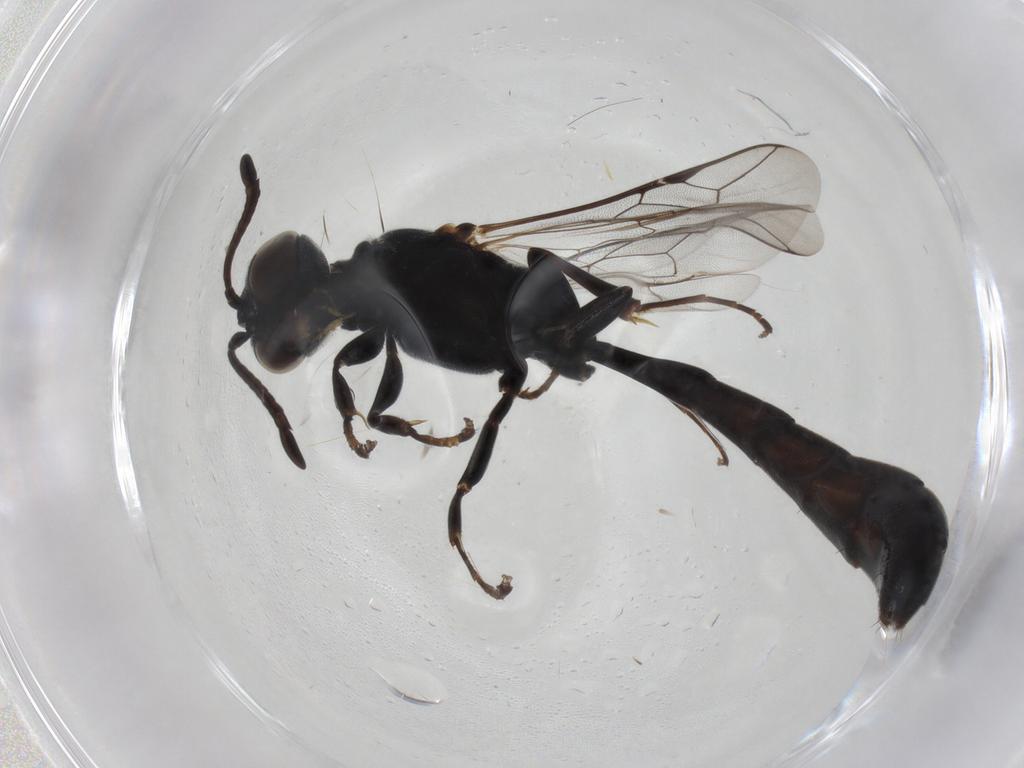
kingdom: Animalia
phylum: Arthropoda
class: Insecta
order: Hymenoptera
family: Crabronidae
